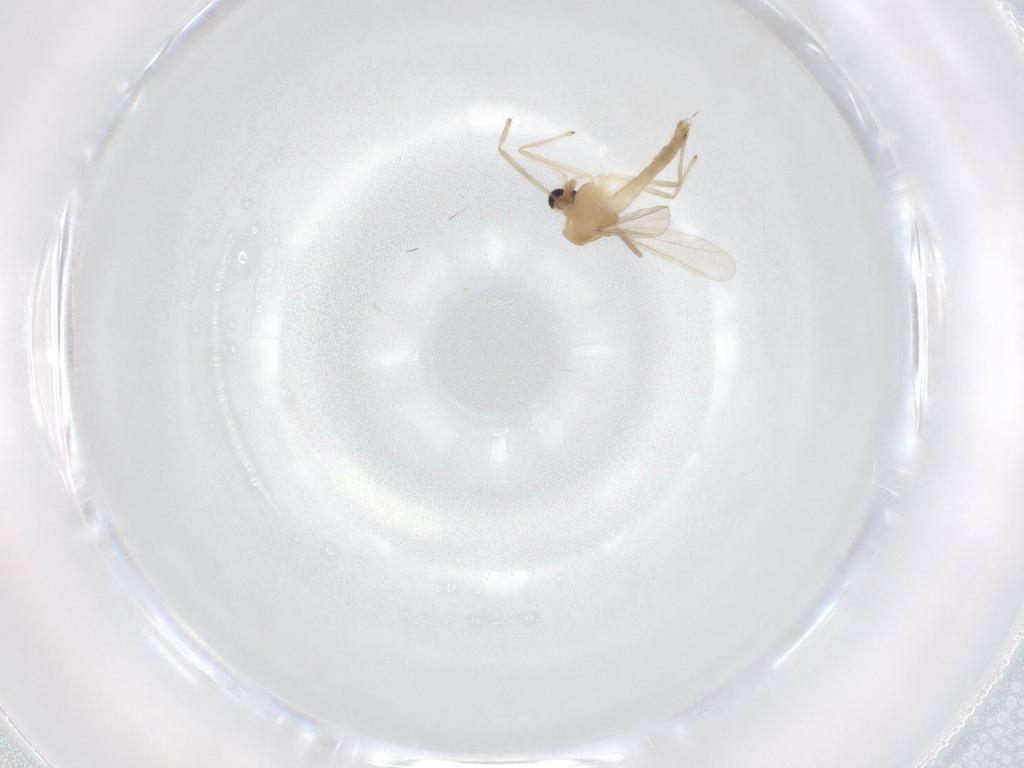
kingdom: Animalia
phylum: Arthropoda
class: Insecta
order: Diptera
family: Chironomidae
